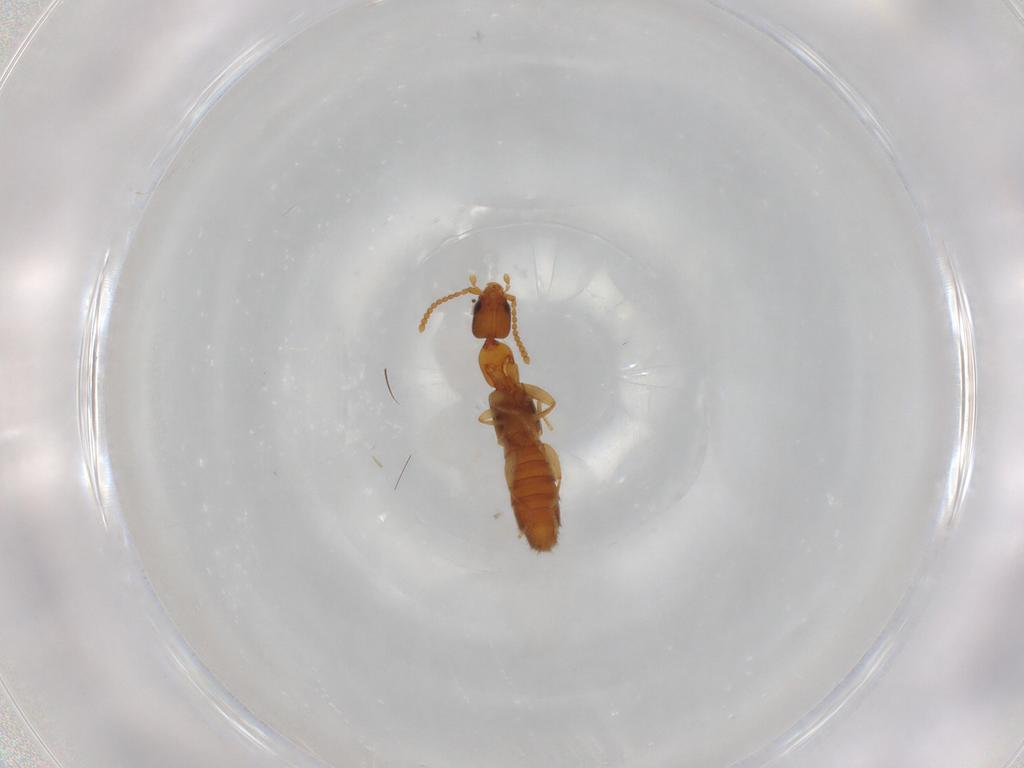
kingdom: Animalia
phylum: Arthropoda
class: Insecta
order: Coleoptera
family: Staphylinidae
